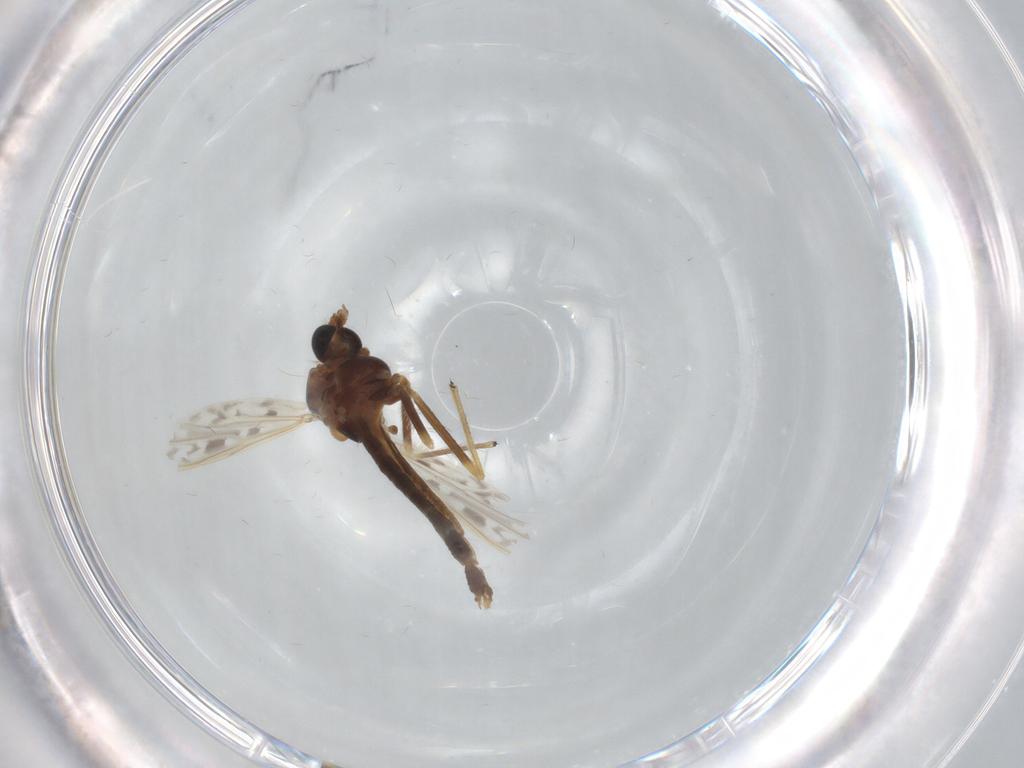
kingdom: Animalia
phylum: Arthropoda
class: Insecta
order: Diptera
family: Chironomidae
